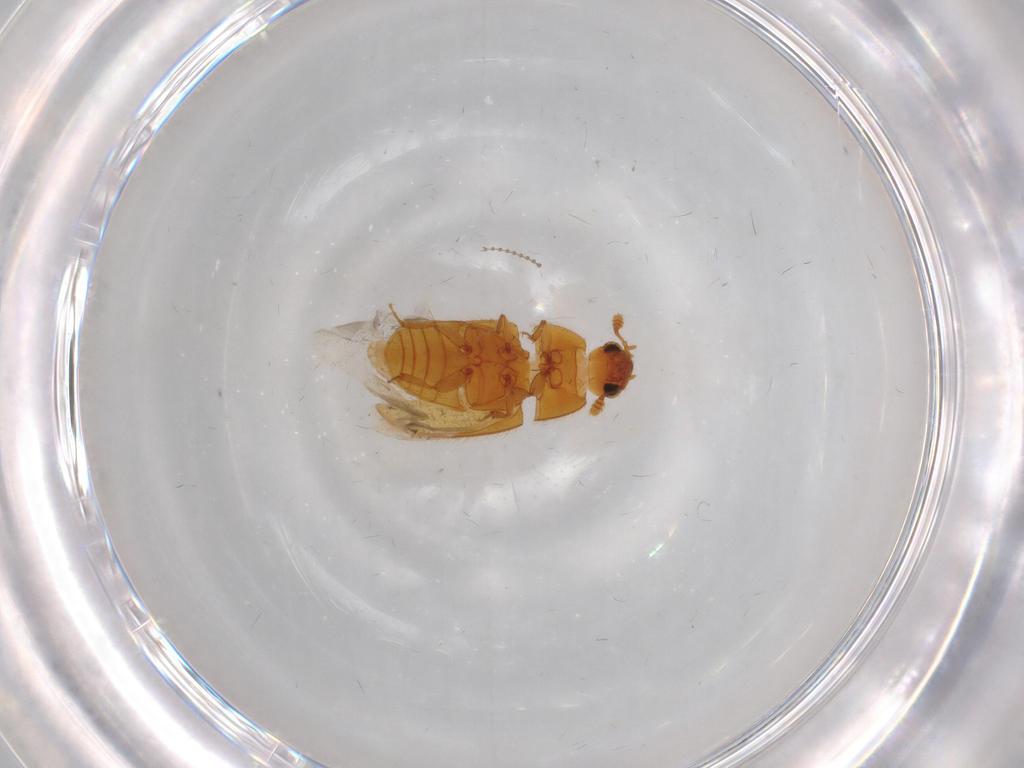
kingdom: Animalia
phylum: Arthropoda
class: Insecta
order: Coleoptera
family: Biphyllidae
